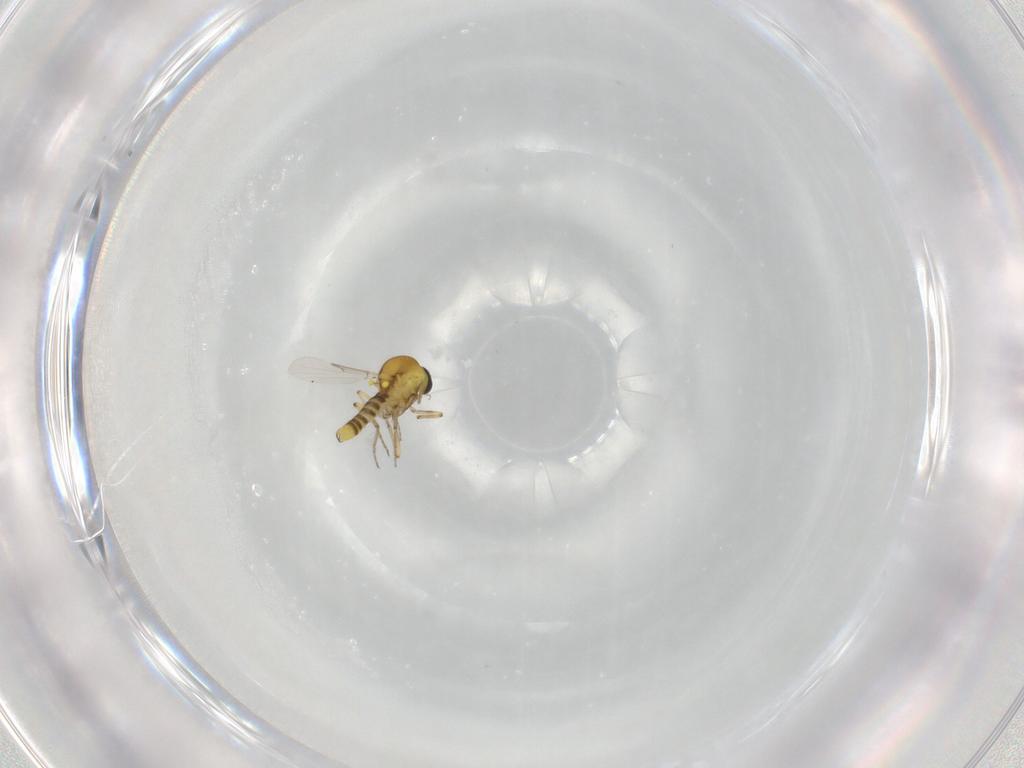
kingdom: Animalia
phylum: Arthropoda
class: Insecta
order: Diptera
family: Ceratopogonidae
